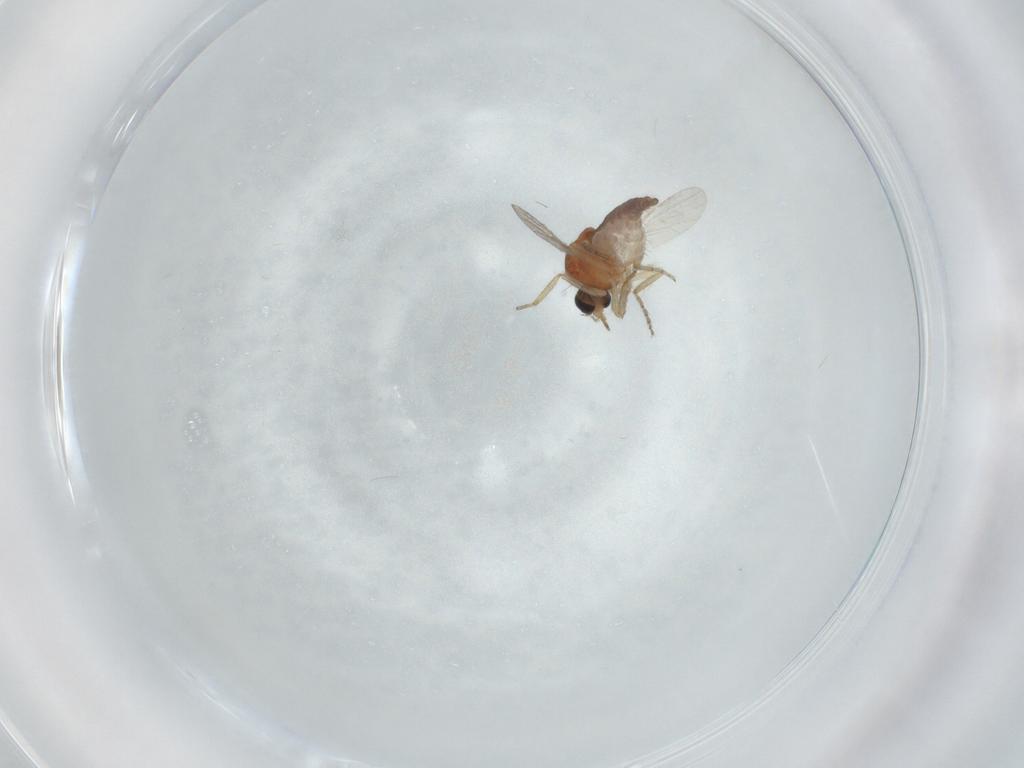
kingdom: Animalia
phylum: Arthropoda
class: Insecta
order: Diptera
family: Ceratopogonidae
